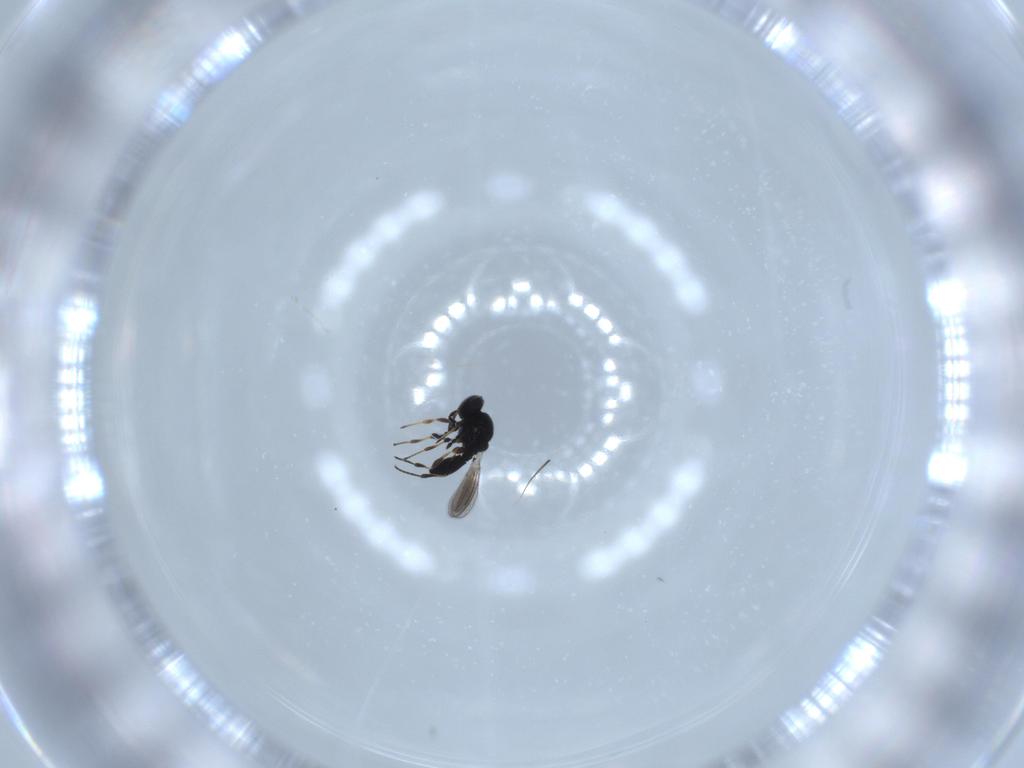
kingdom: Animalia
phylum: Arthropoda
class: Insecta
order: Hymenoptera
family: Platygastridae
